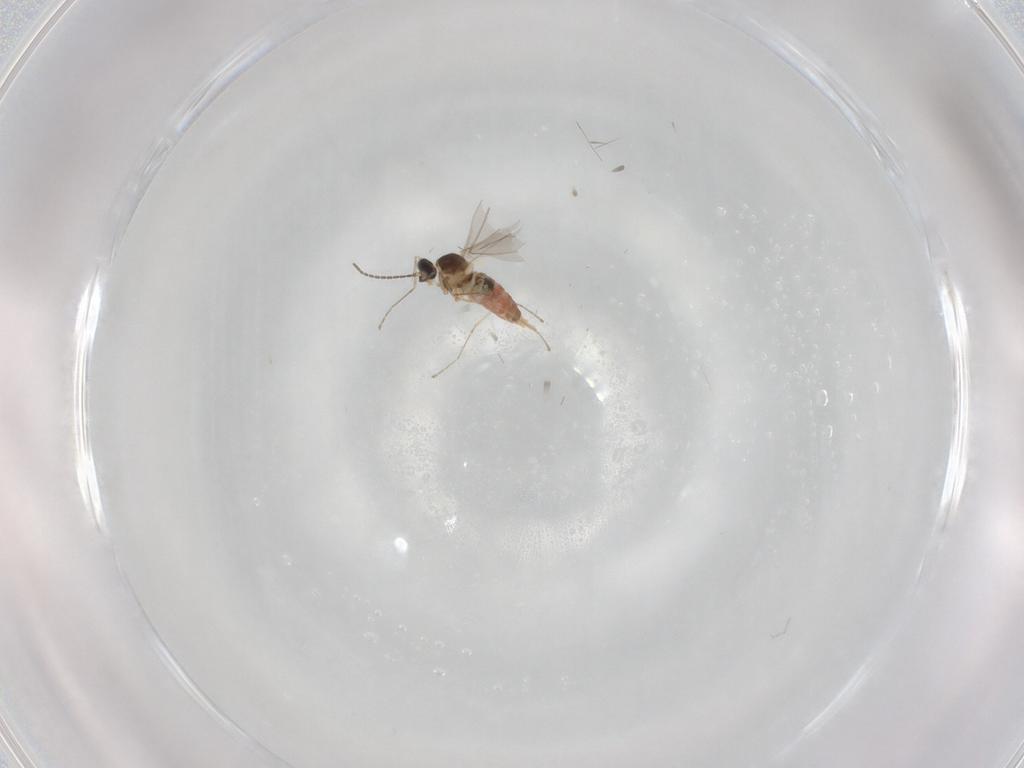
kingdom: Animalia
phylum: Arthropoda
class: Insecta
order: Diptera
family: Cecidomyiidae
